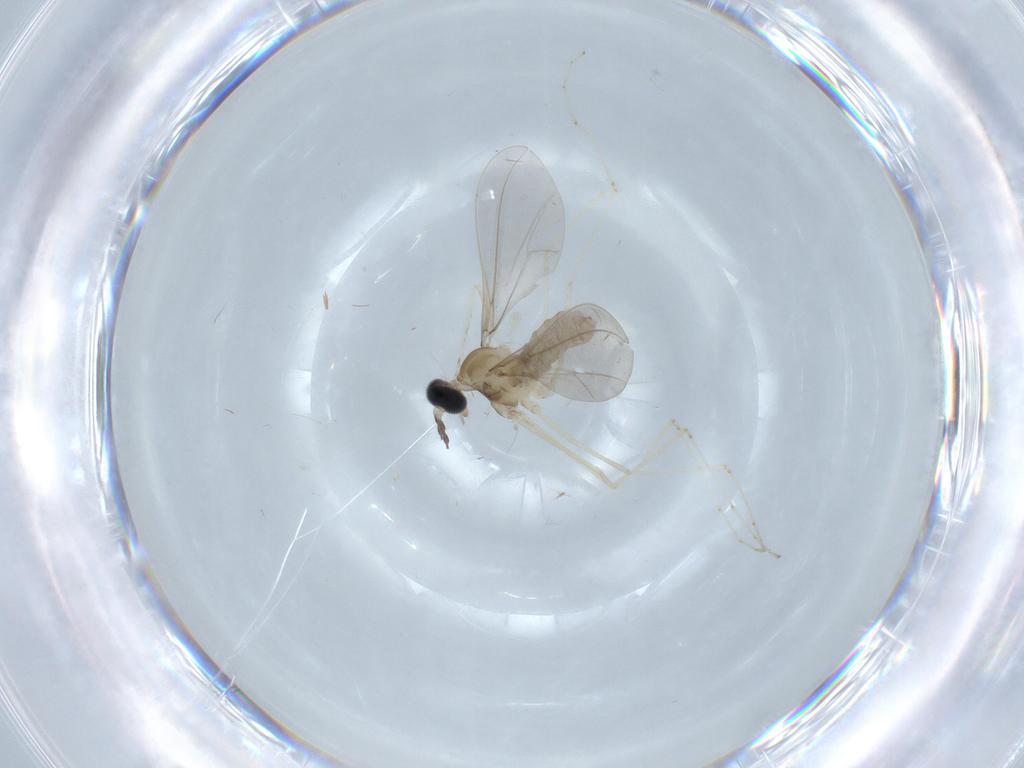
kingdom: Animalia
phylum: Arthropoda
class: Insecta
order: Diptera
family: Cecidomyiidae
